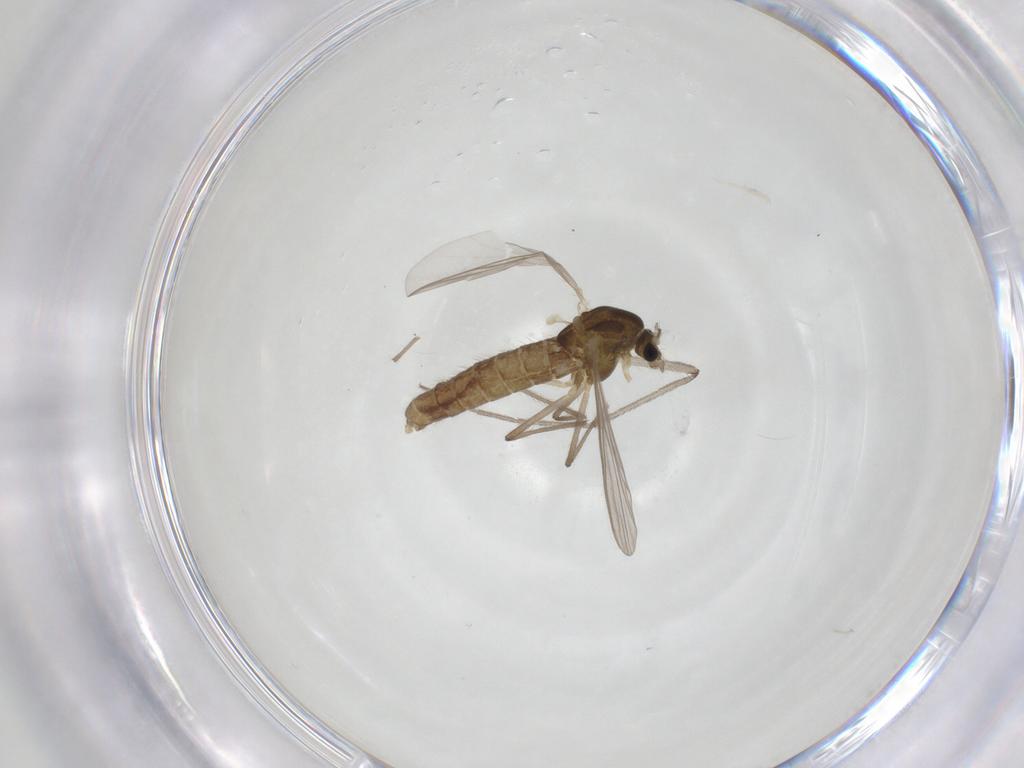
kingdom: Animalia
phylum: Arthropoda
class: Insecta
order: Diptera
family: Chironomidae
